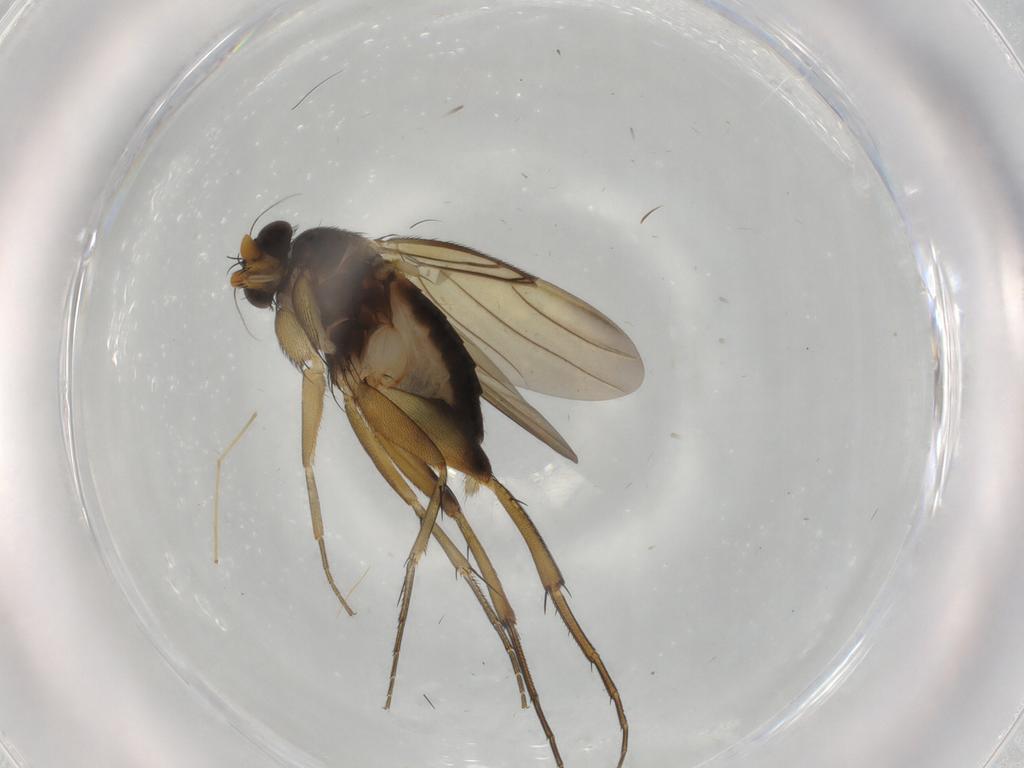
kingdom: Animalia
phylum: Arthropoda
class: Insecta
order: Diptera
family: Phoridae
